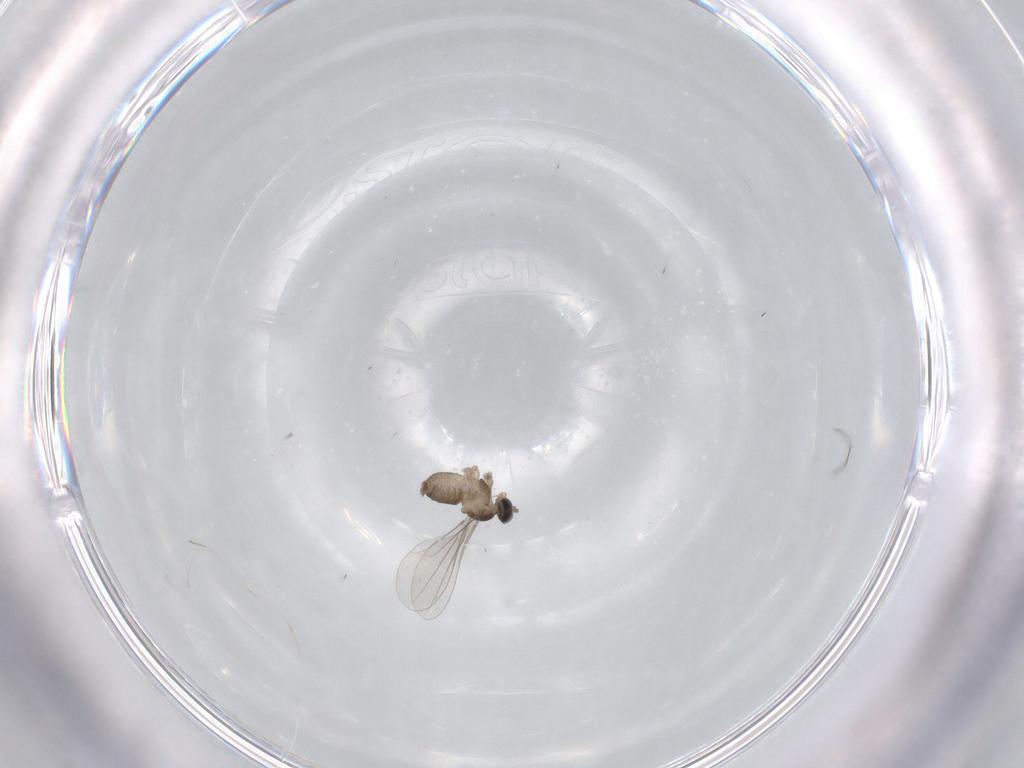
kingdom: Animalia
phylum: Arthropoda
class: Insecta
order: Diptera
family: Cecidomyiidae
